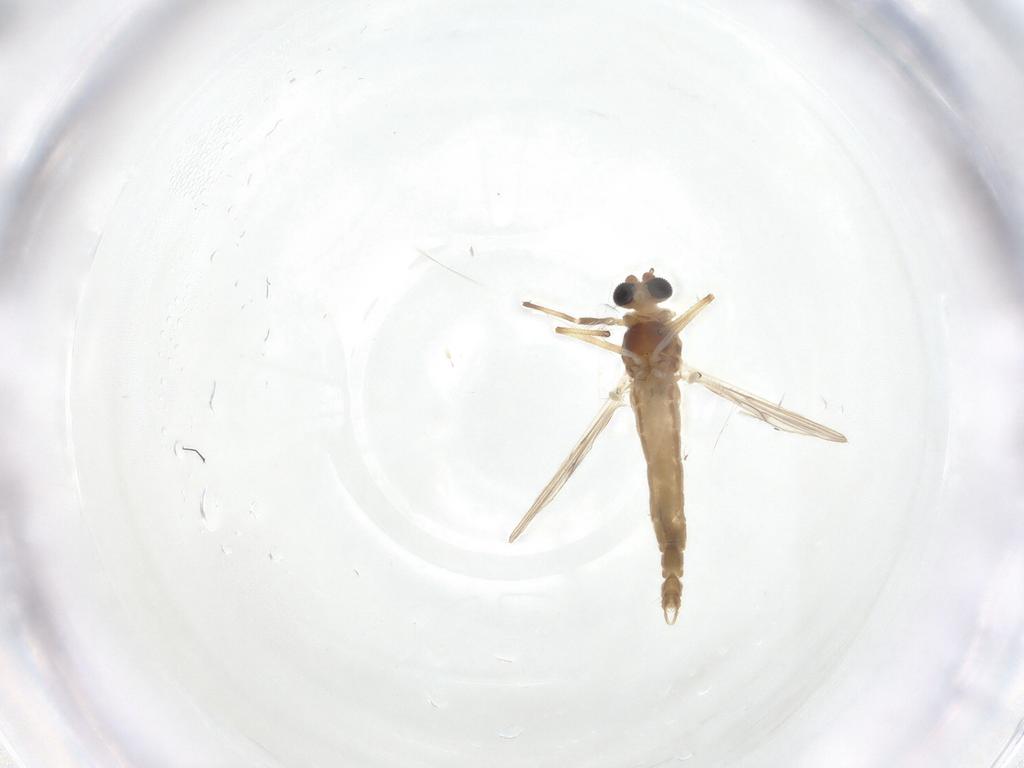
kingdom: Animalia
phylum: Arthropoda
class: Insecta
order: Diptera
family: Chironomidae
